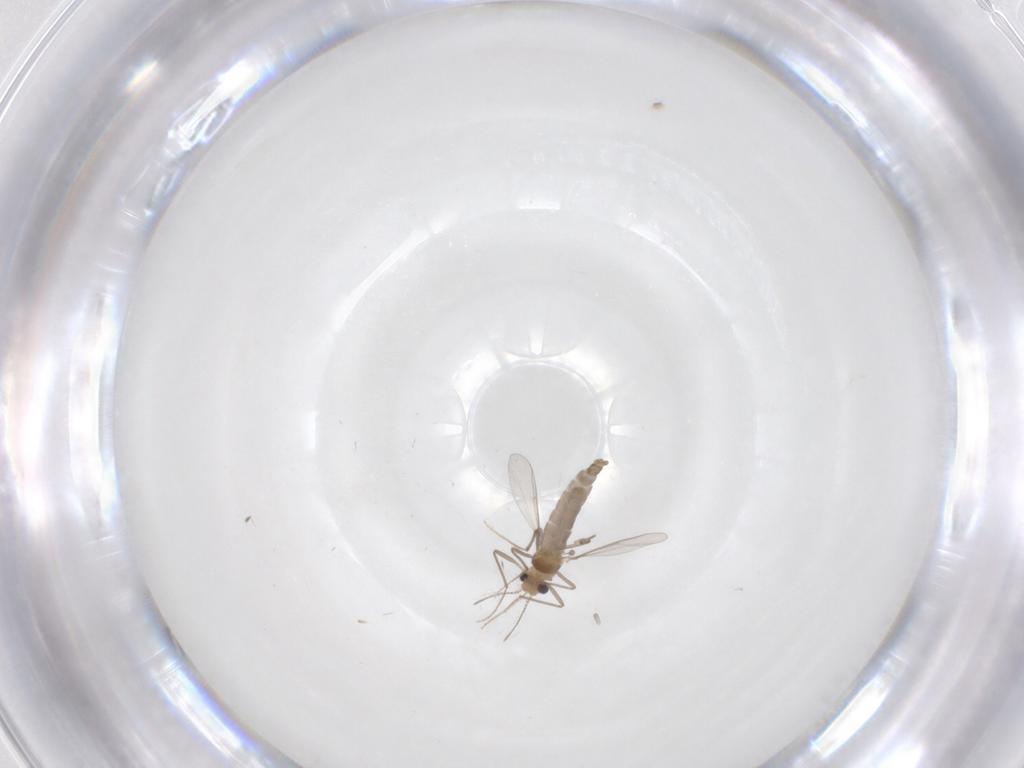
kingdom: Animalia
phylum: Arthropoda
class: Insecta
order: Diptera
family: Chironomidae
